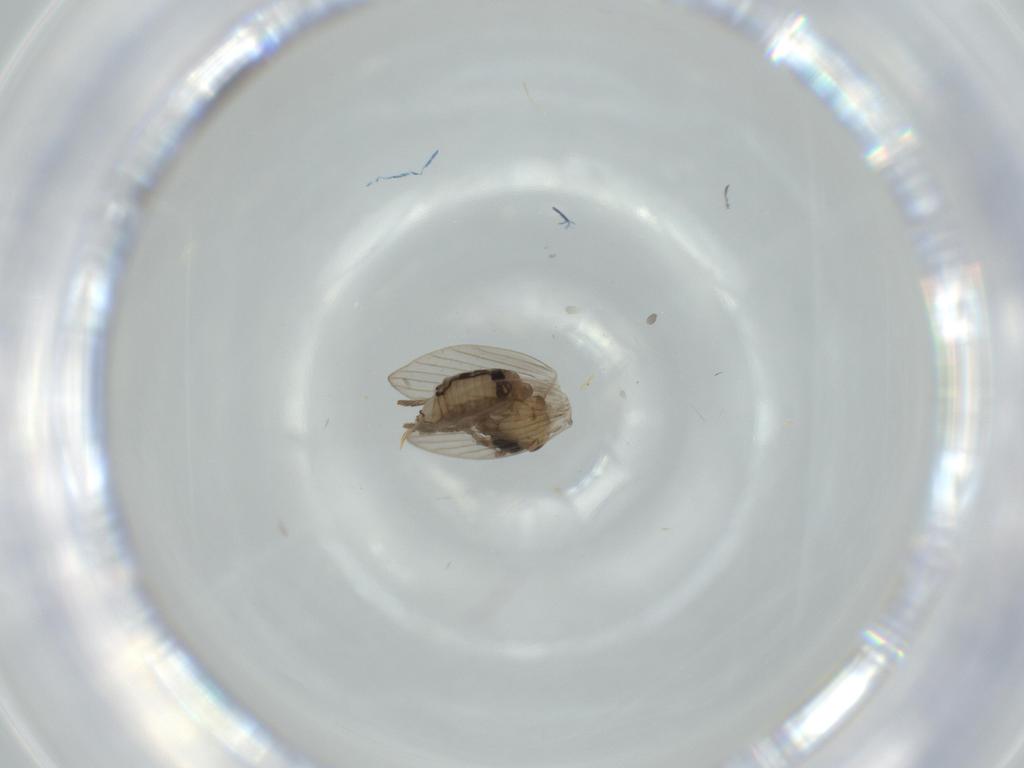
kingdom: Animalia
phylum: Arthropoda
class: Insecta
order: Diptera
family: Psychodidae
